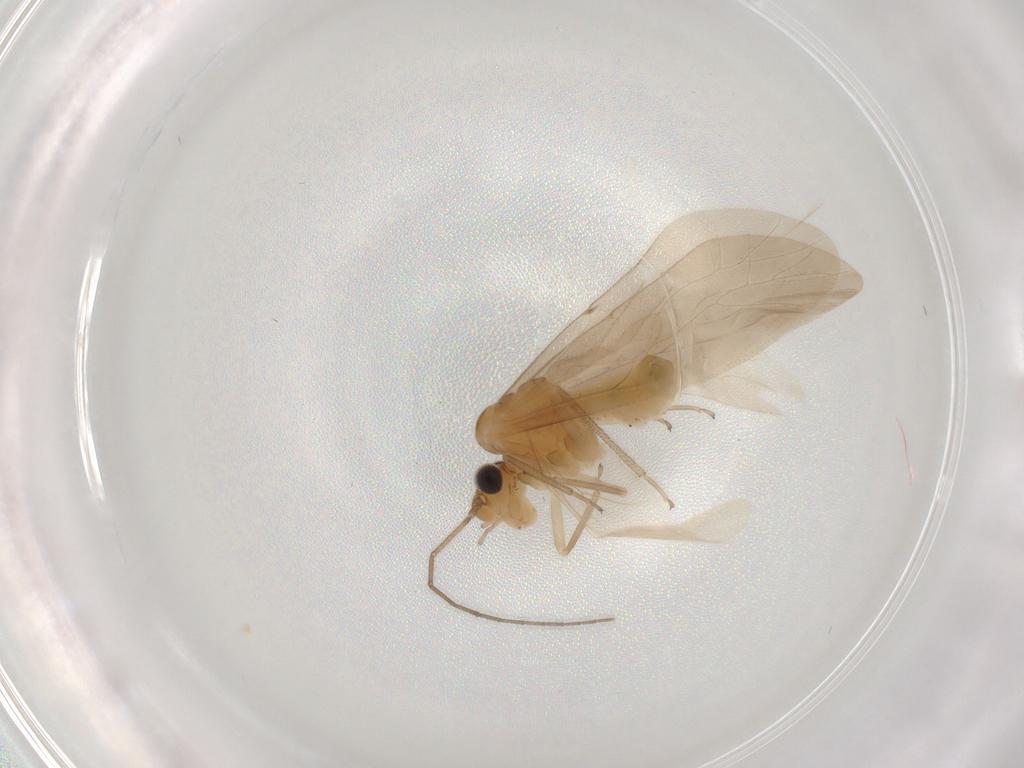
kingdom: Animalia
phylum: Arthropoda
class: Insecta
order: Psocodea
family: Caeciliusidae
